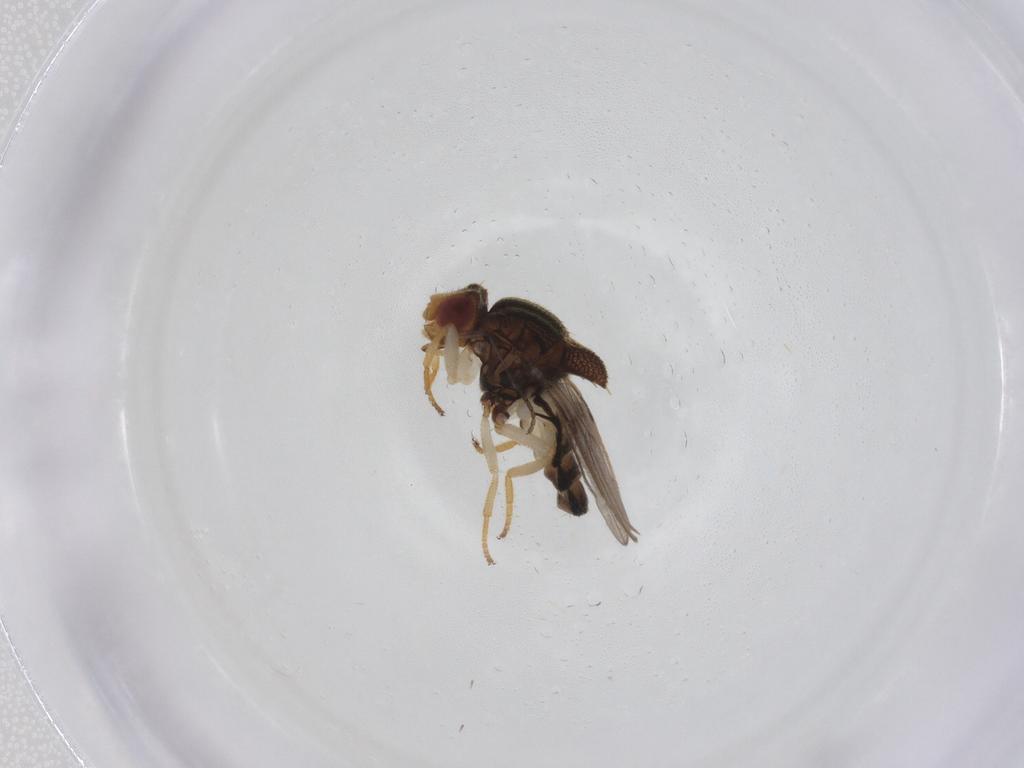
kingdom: Animalia
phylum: Arthropoda
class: Insecta
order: Diptera
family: Chloropidae
